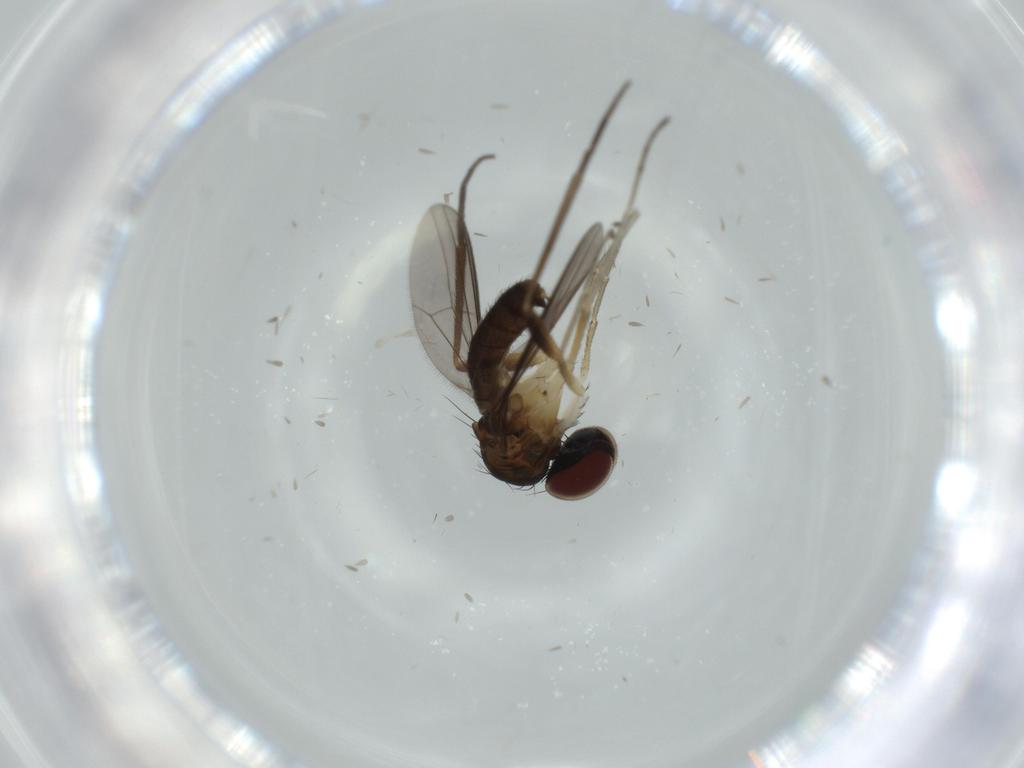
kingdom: Animalia
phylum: Arthropoda
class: Insecta
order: Diptera
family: Dolichopodidae
